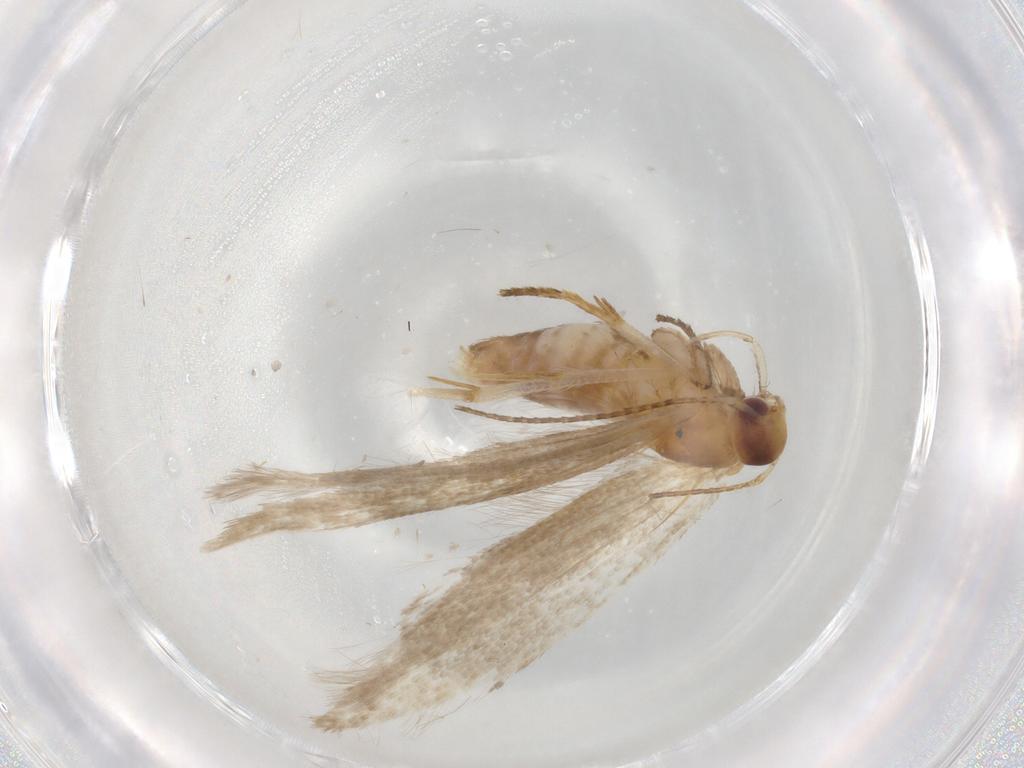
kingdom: Animalia
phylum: Arthropoda
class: Insecta
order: Lepidoptera
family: Gelechiidae
